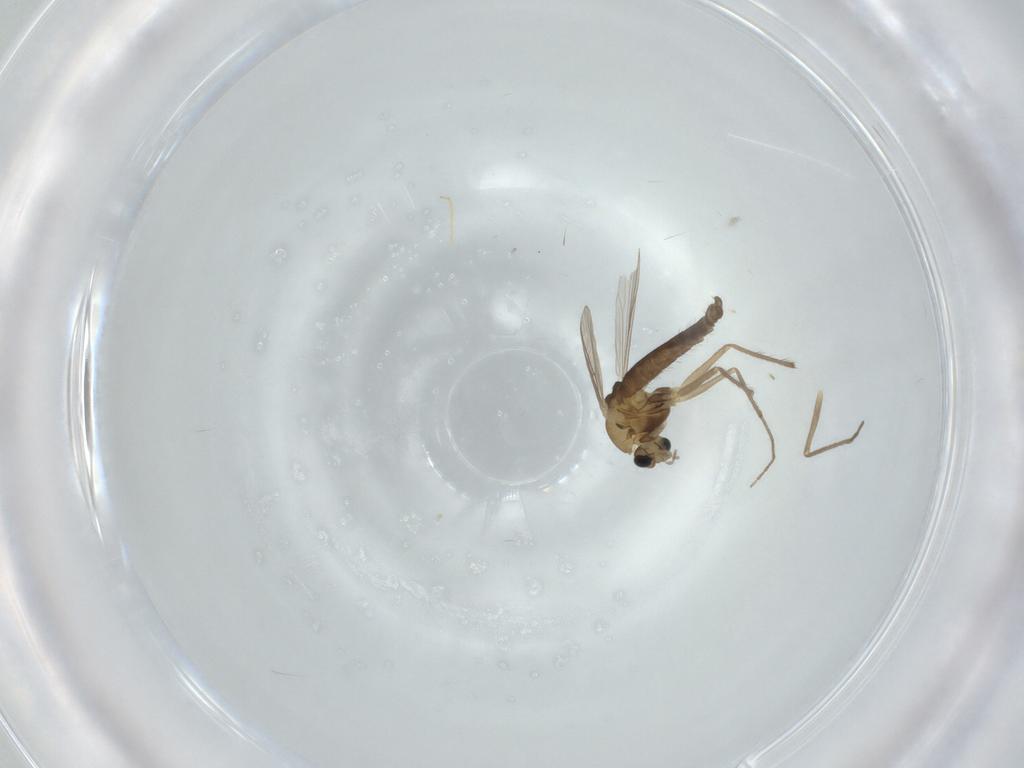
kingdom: Animalia
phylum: Arthropoda
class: Insecta
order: Diptera
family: Chironomidae
